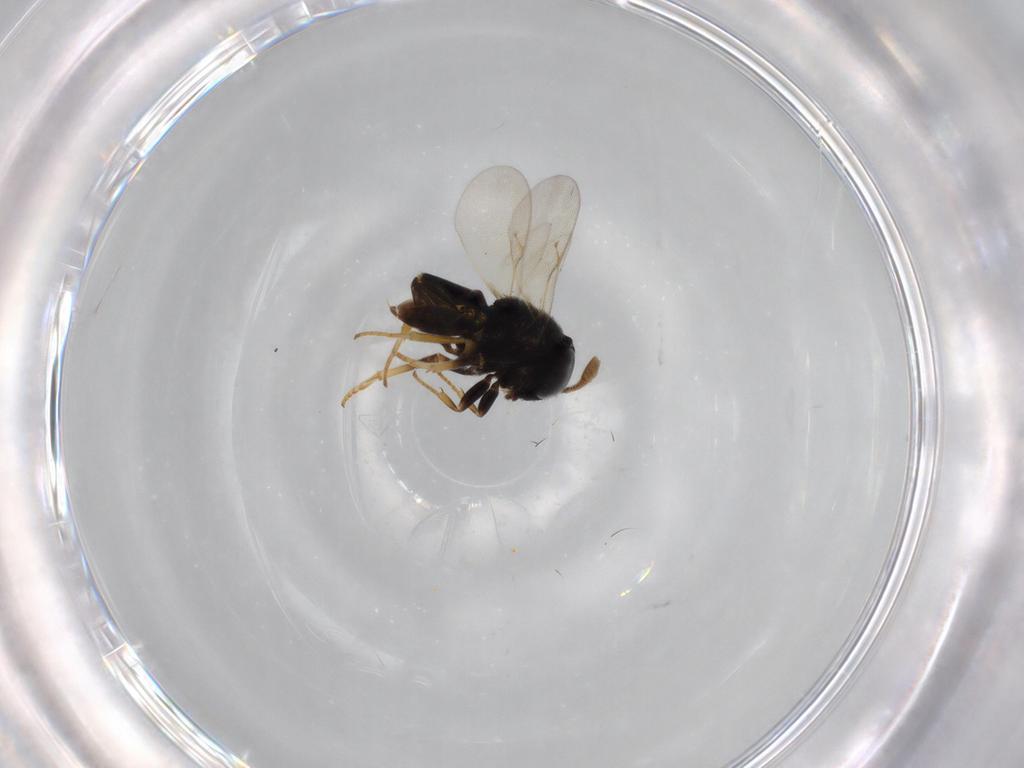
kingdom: Animalia
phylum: Arthropoda
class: Insecta
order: Hymenoptera
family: Encyrtidae
